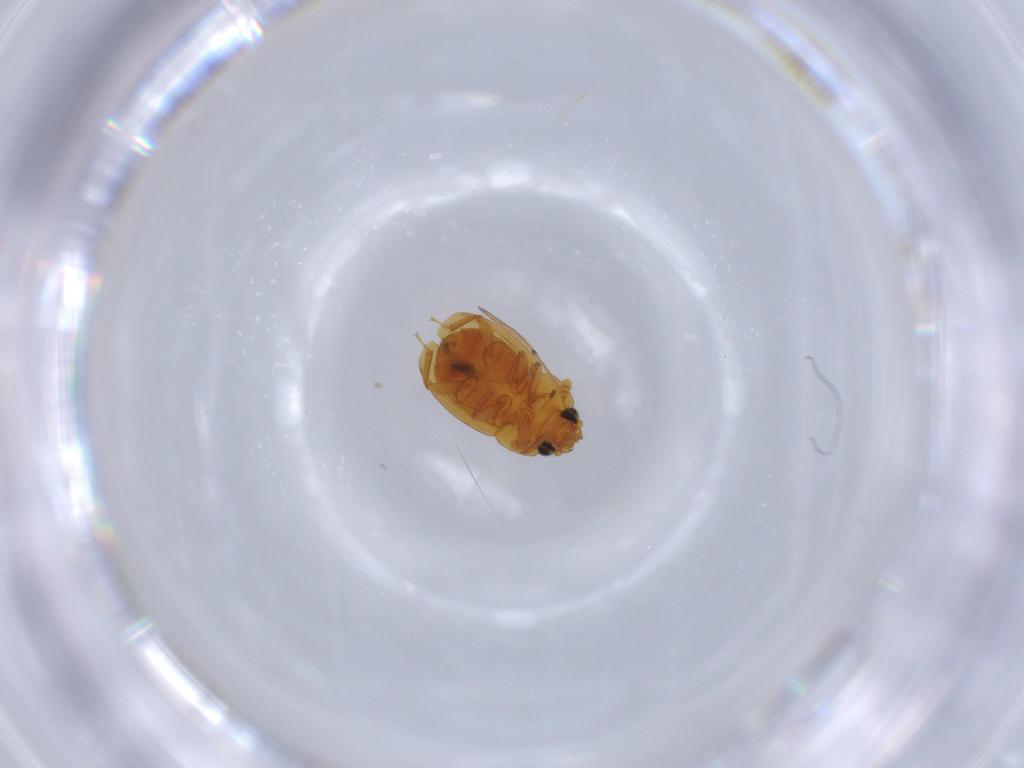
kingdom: Animalia
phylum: Arthropoda
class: Insecta
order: Coleoptera
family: Nitidulidae
